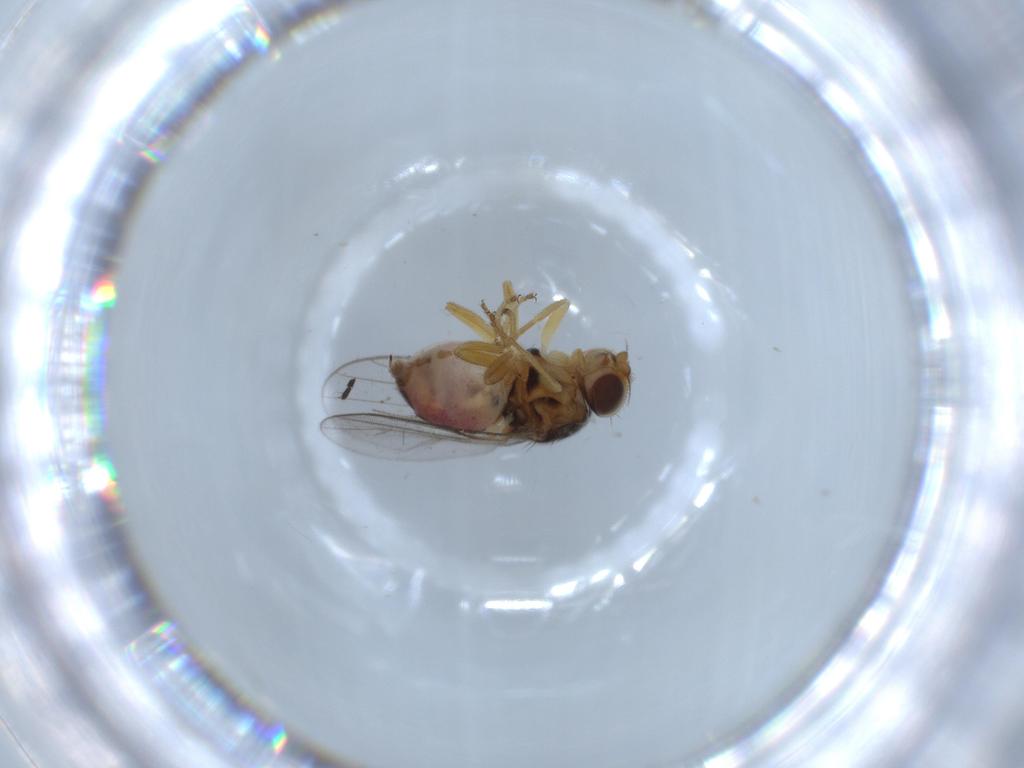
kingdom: Animalia
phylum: Arthropoda
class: Insecta
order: Diptera
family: Chloropidae
